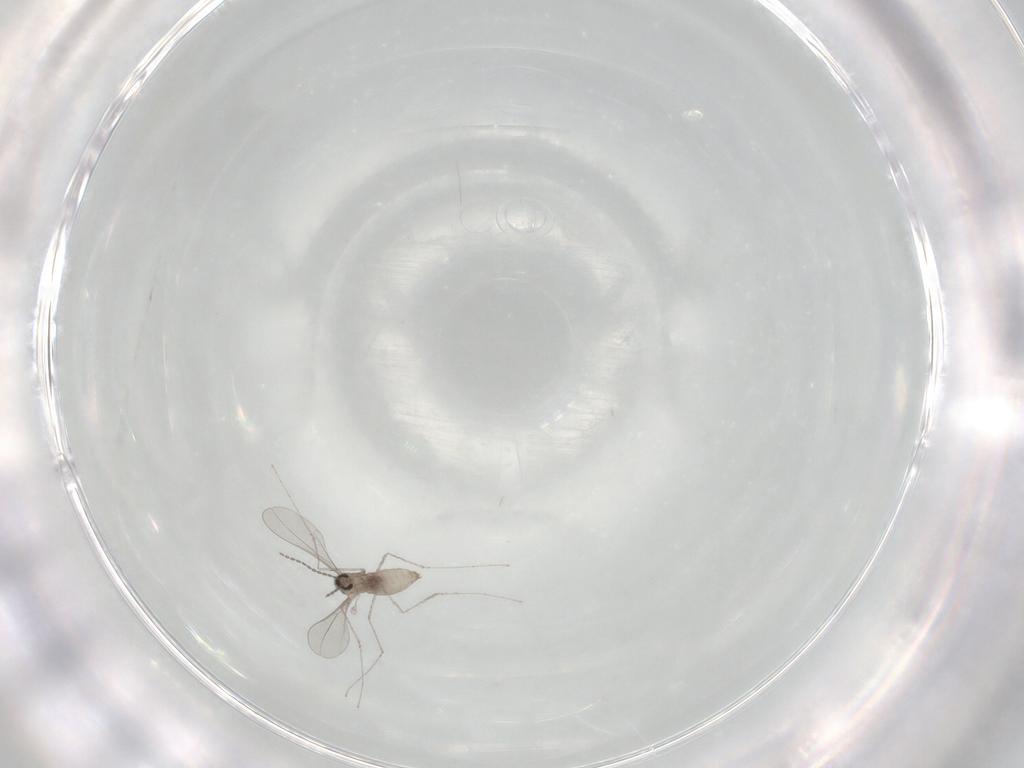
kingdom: Animalia
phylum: Arthropoda
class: Insecta
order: Diptera
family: Cecidomyiidae
